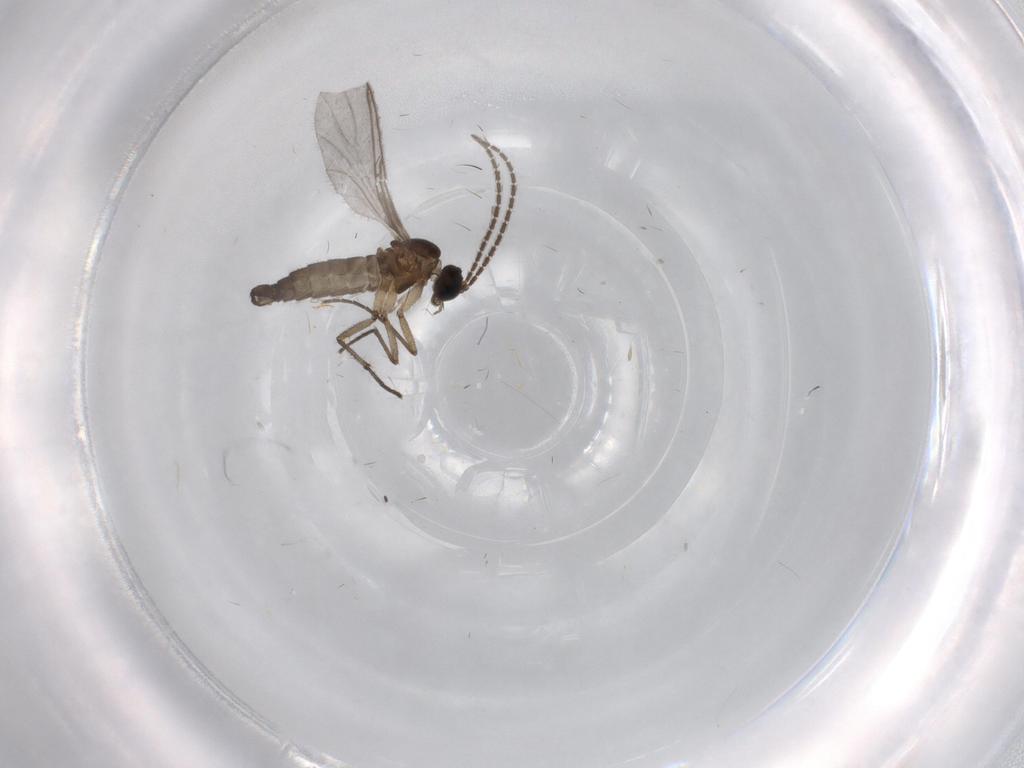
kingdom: Animalia
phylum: Arthropoda
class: Insecta
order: Diptera
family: Sciaridae
